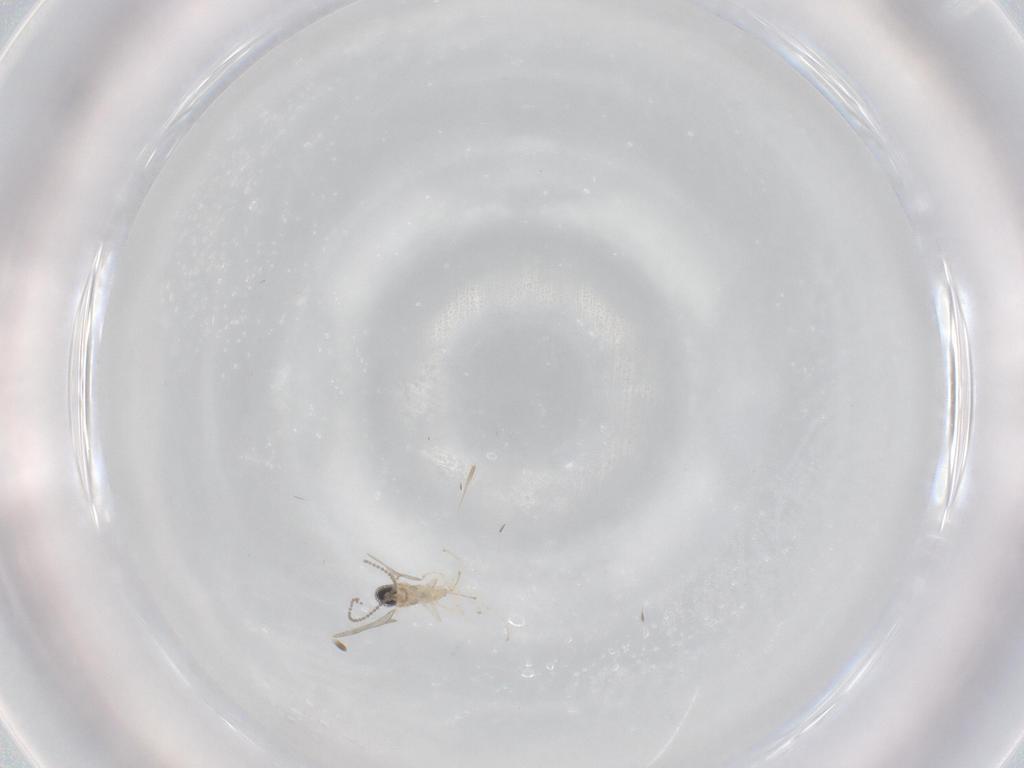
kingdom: Animalia
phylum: Arthropoda
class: Insecta
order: Diptera
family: Cecidomyiidae
